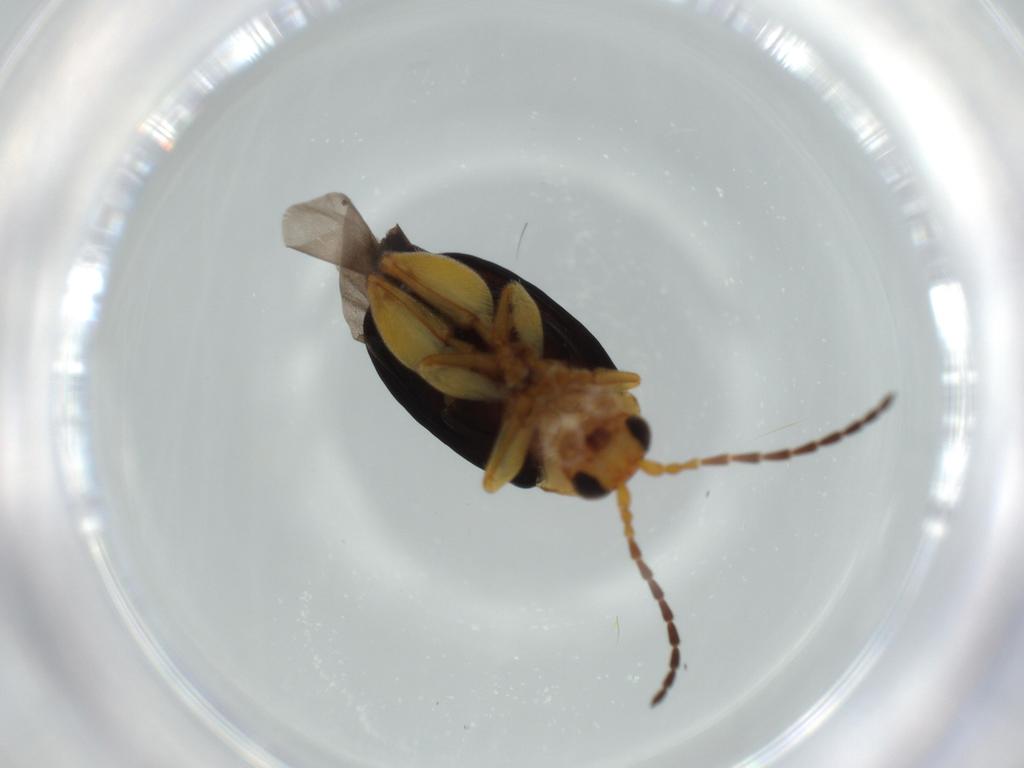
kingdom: Animalia
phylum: Arthropoda
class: Insecta
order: Coleoptera
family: Chrysomelidae
